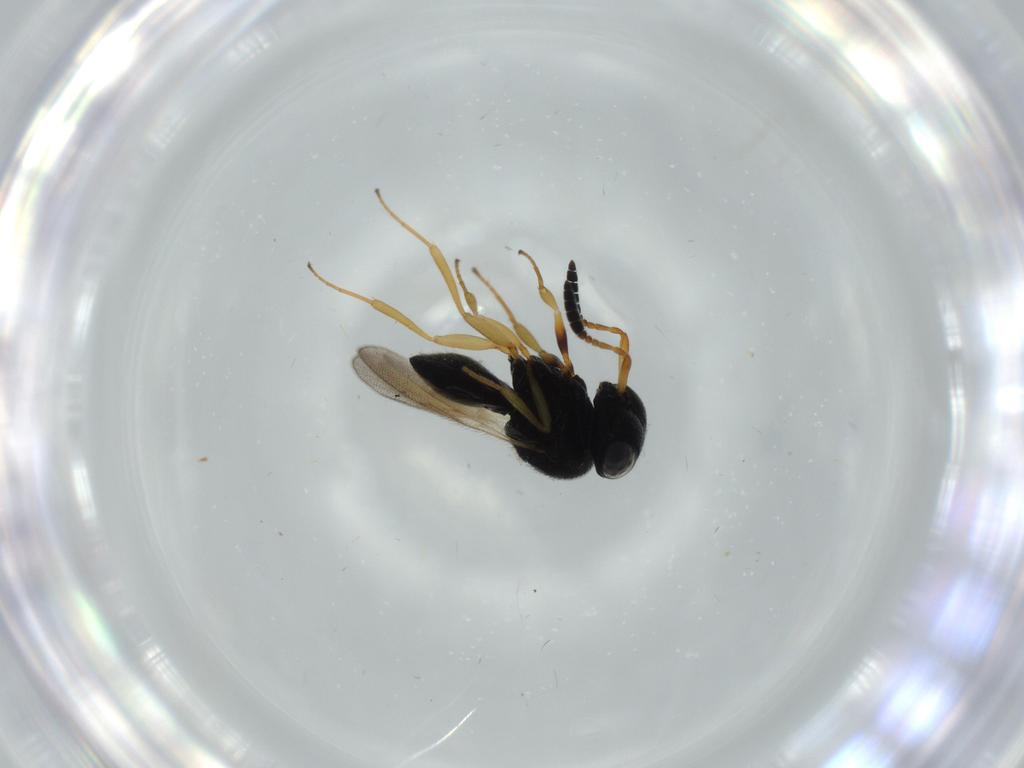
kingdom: Animalia
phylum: Arthropoda
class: Insecta
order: Hymenoptera
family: Scelionidae
